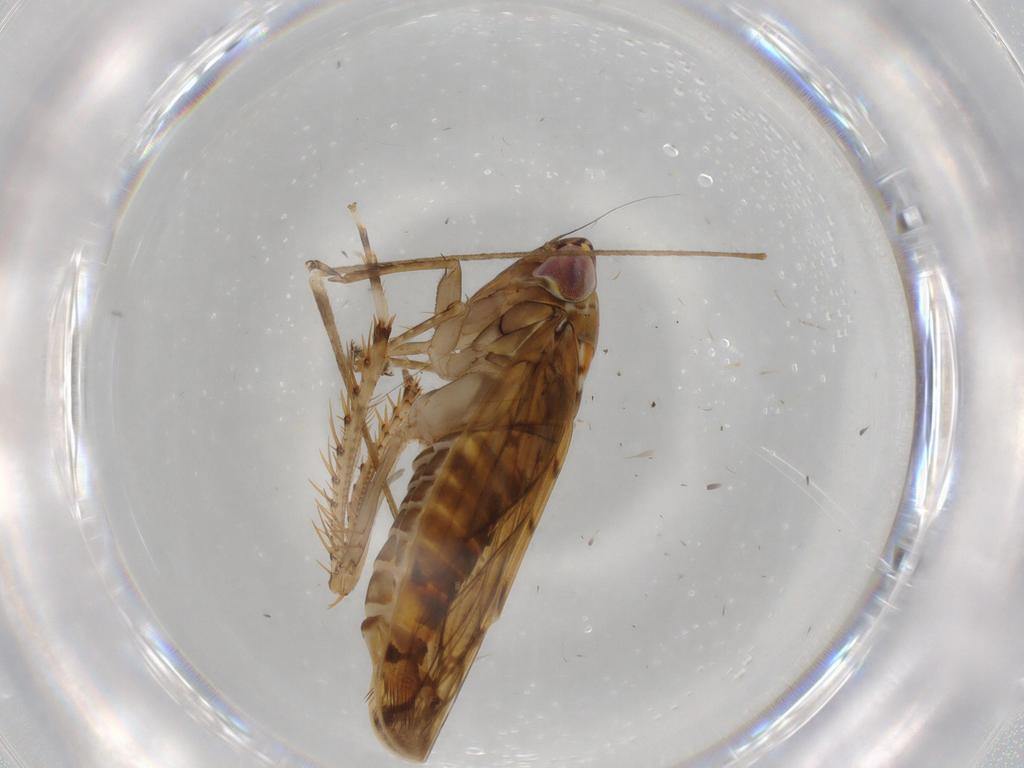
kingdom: Animalia
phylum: Arthropoda
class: Insecta
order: Hemiptera
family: Cicadellidae
